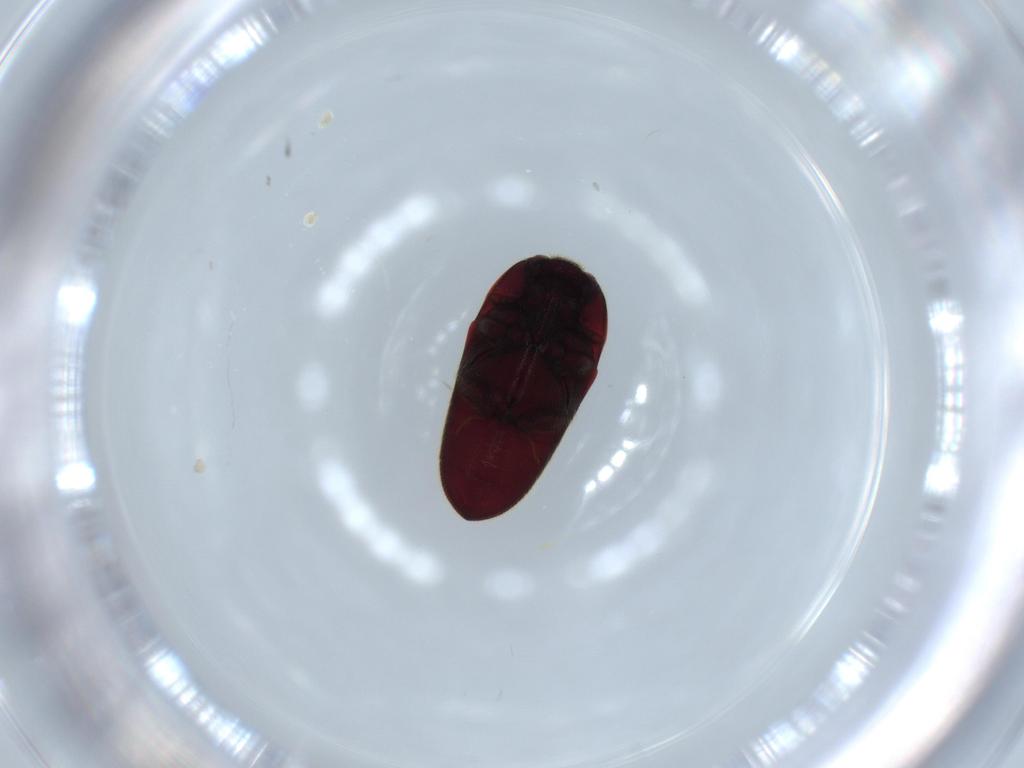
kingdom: Animalia
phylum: Arthropoda
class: Insecta
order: Coleoptera
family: Throscidae
